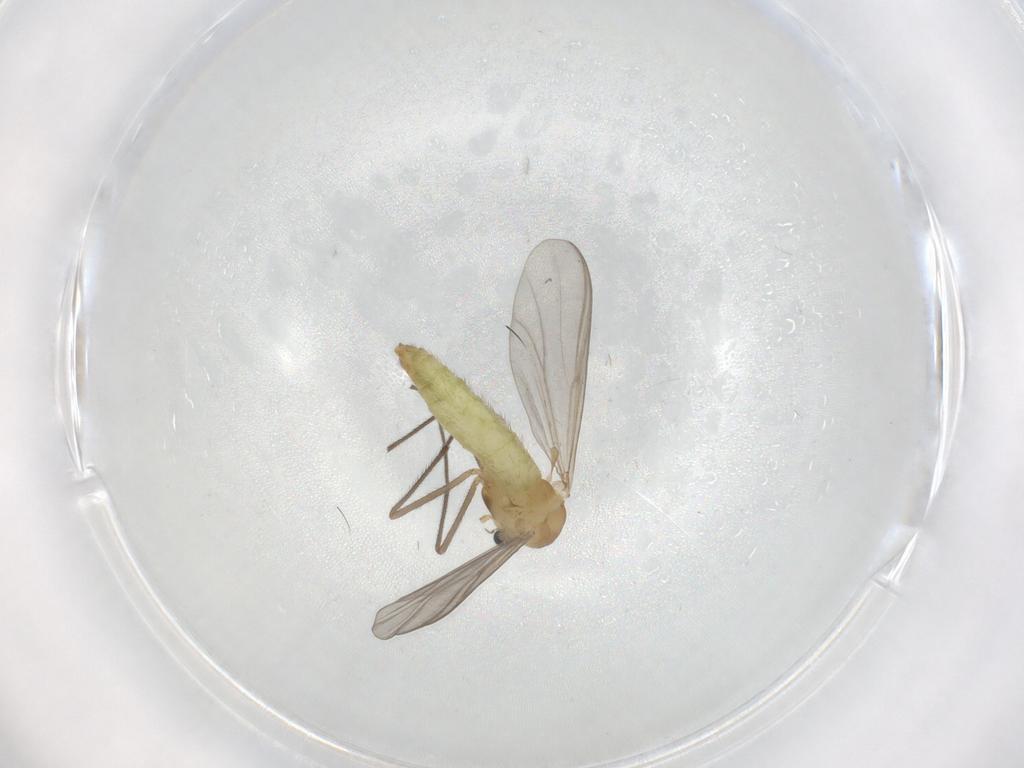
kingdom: Animalia
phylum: Arthropoda
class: Insecta
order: Diptera
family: Chironomidae
